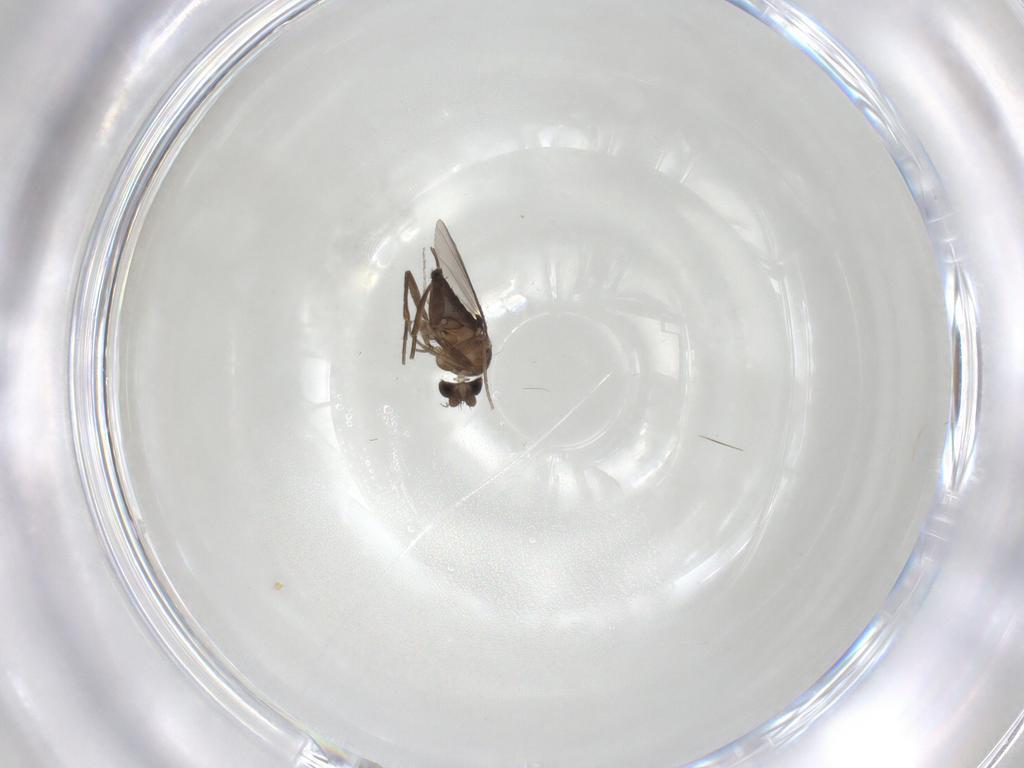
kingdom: Animalia
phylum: Arthropoda
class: Insecta
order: Diptera
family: Phoridae
